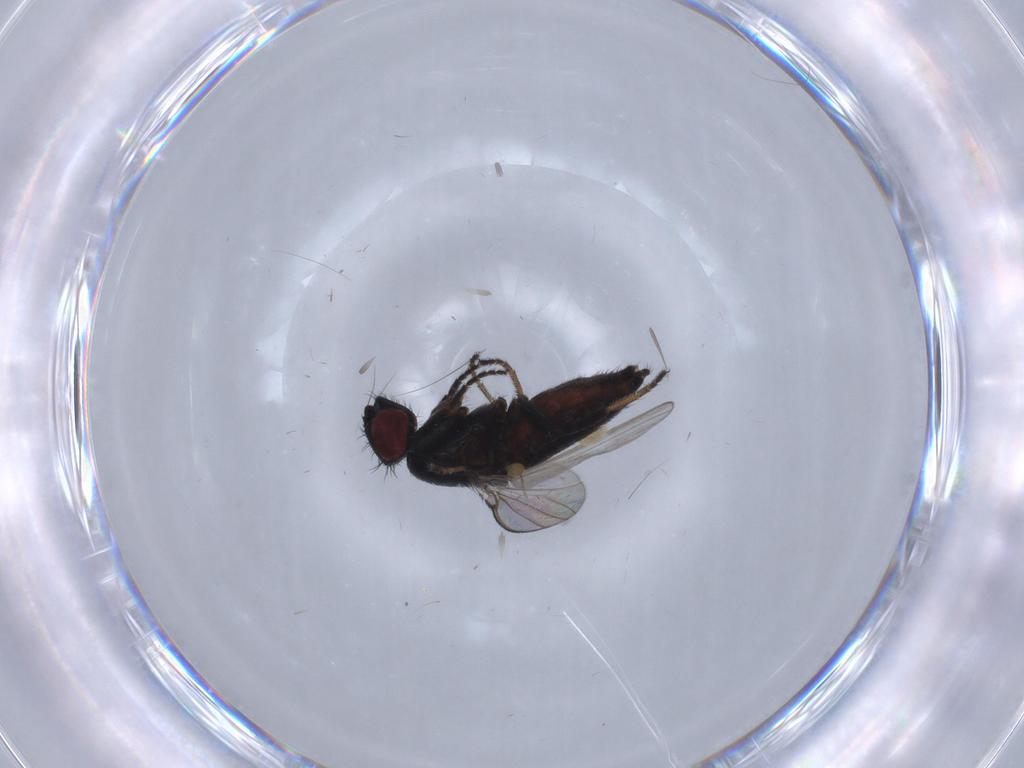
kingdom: Animalia
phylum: Arthropoda
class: Insecta
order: Diptera
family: Milichiidae
